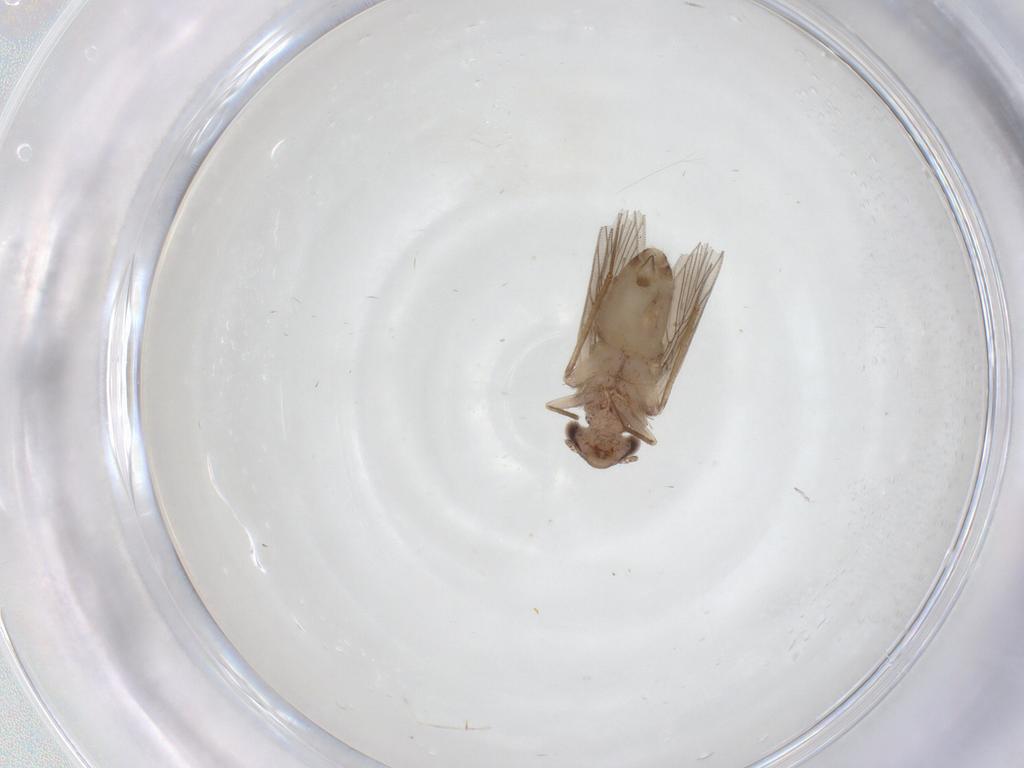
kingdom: Animalia
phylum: Arthropoda
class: Insecta
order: Psocodea
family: Lepidopsocidae
